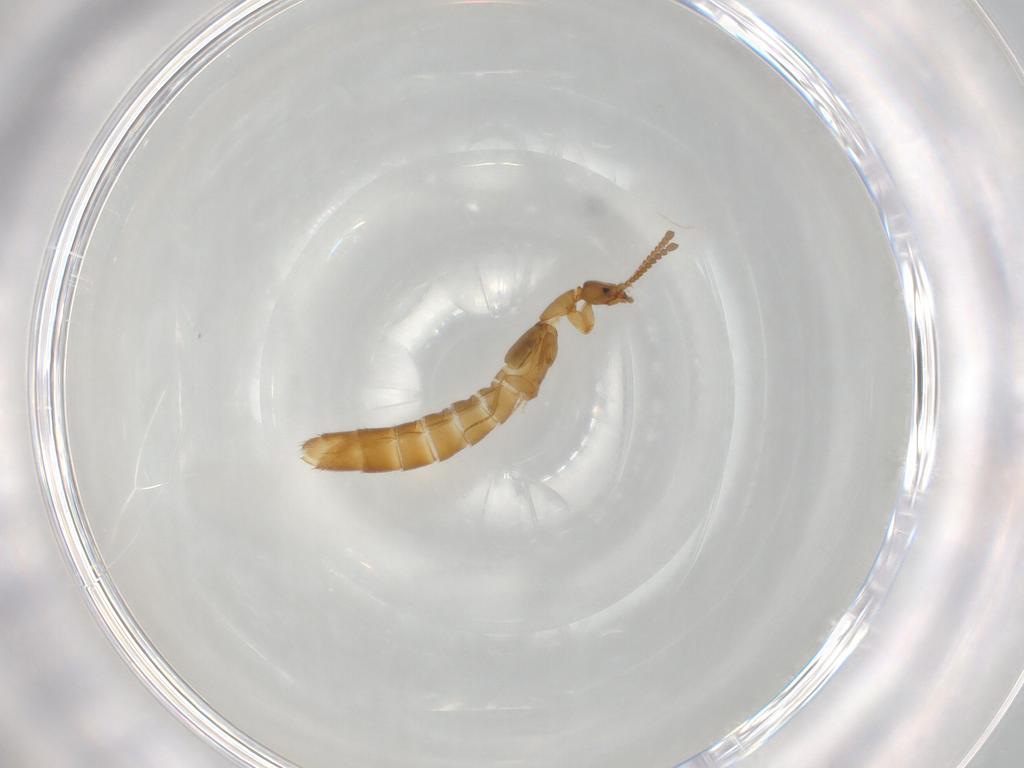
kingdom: Animalia
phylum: Arthropoda
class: Insecta
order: Coleoptera
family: Staphylinidae
